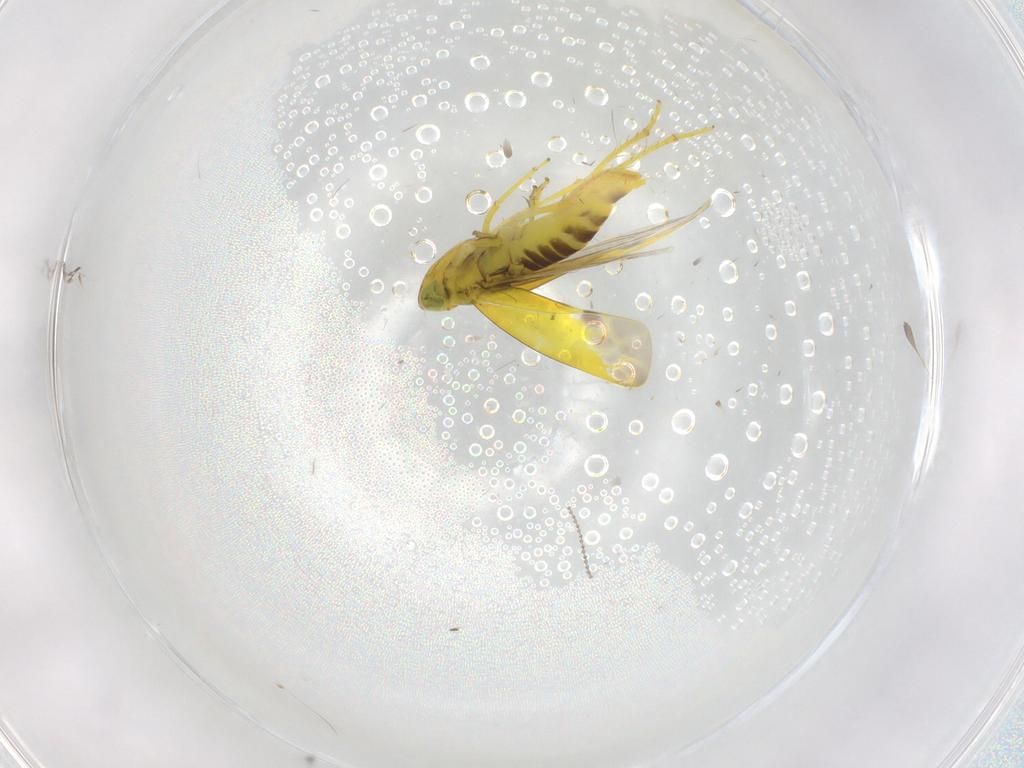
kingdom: Animalia
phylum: Arthropoda
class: Insecta
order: Hemiptera
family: Cicadellidae
